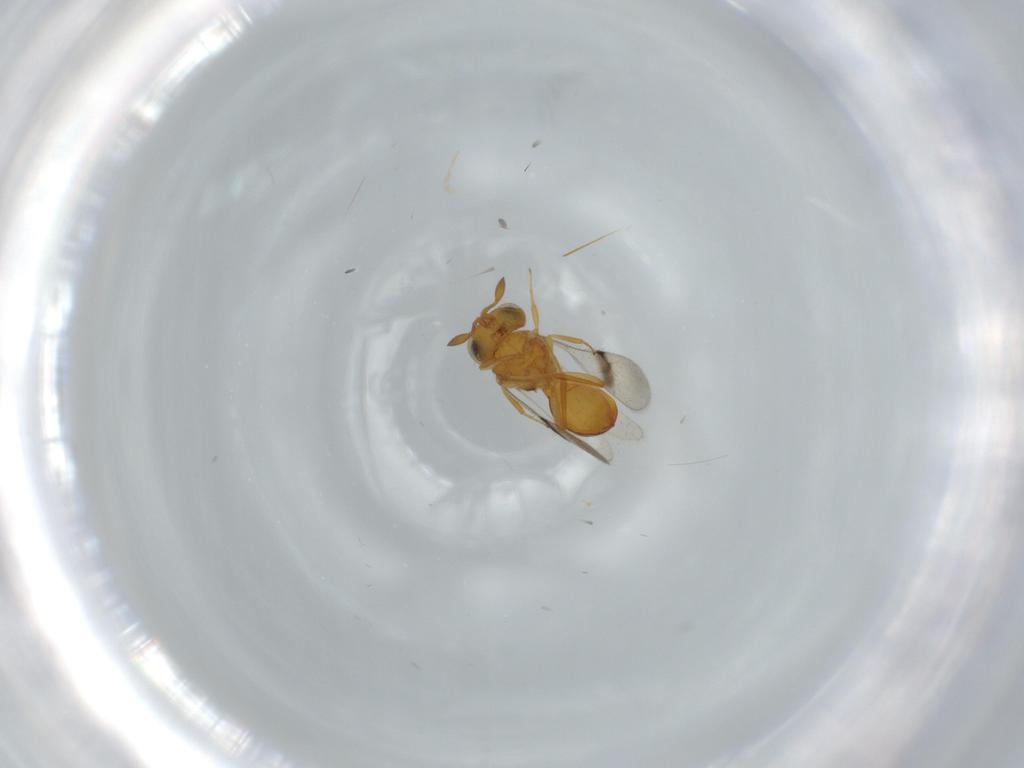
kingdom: Animalia
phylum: Arthropoda
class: Insecta
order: Hymenoptera
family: Scelionidae
